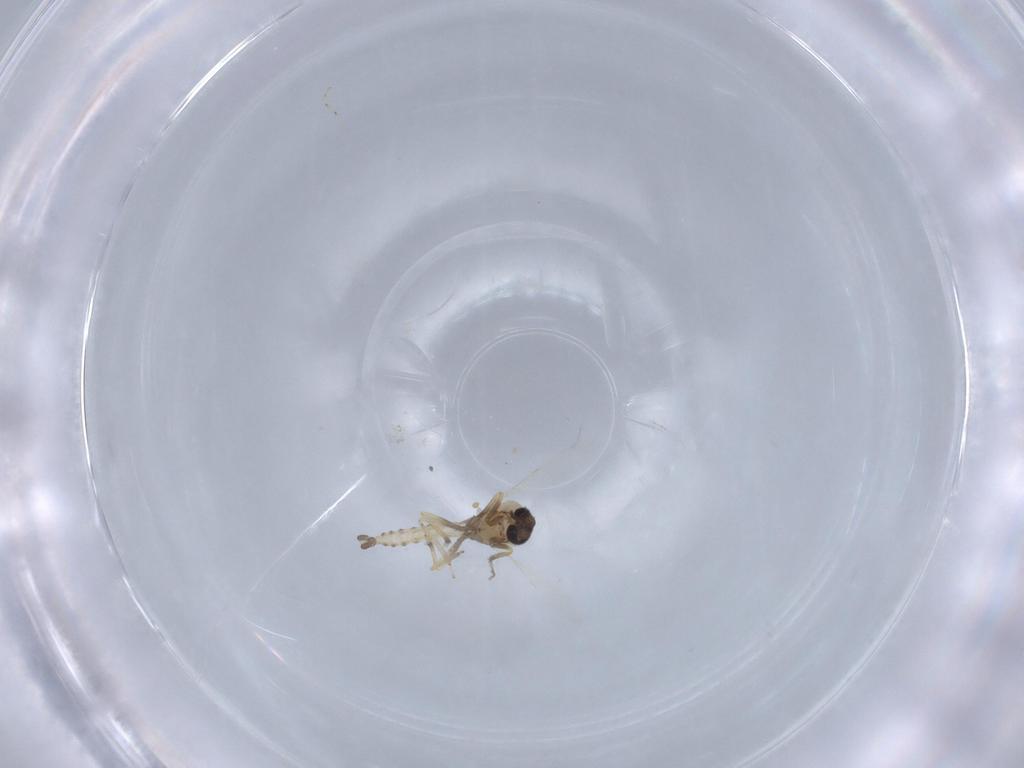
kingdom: Animalia
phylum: Arthropoda
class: Insecta
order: Diptera
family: Ceratopogonidae
